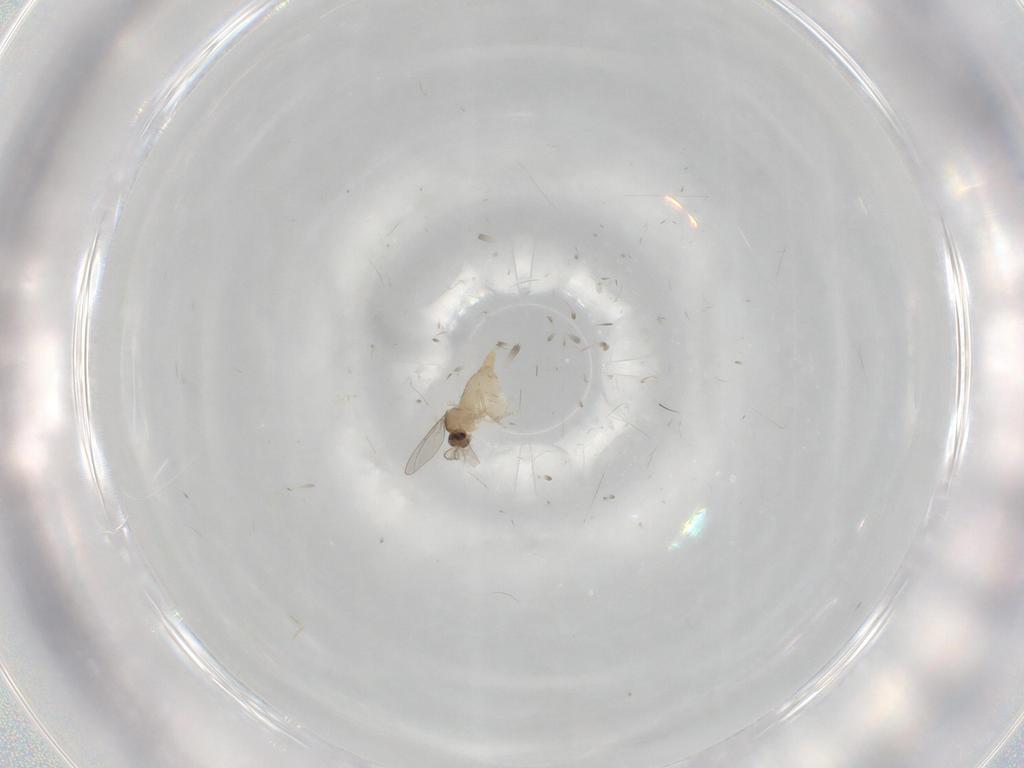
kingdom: Animalia
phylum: Arthropoda
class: Insecta
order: Diptera
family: Cecidomyiidae
